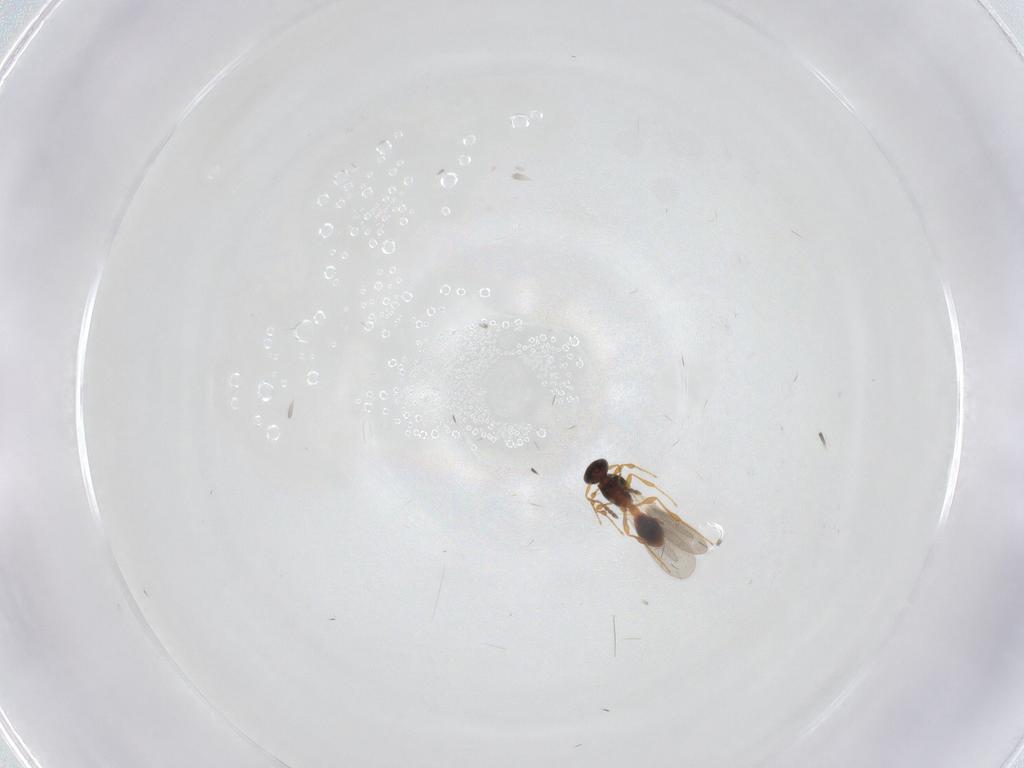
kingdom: Animalia
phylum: Arthropoda
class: Insecta
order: Hymenoptera
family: Platygastridae
